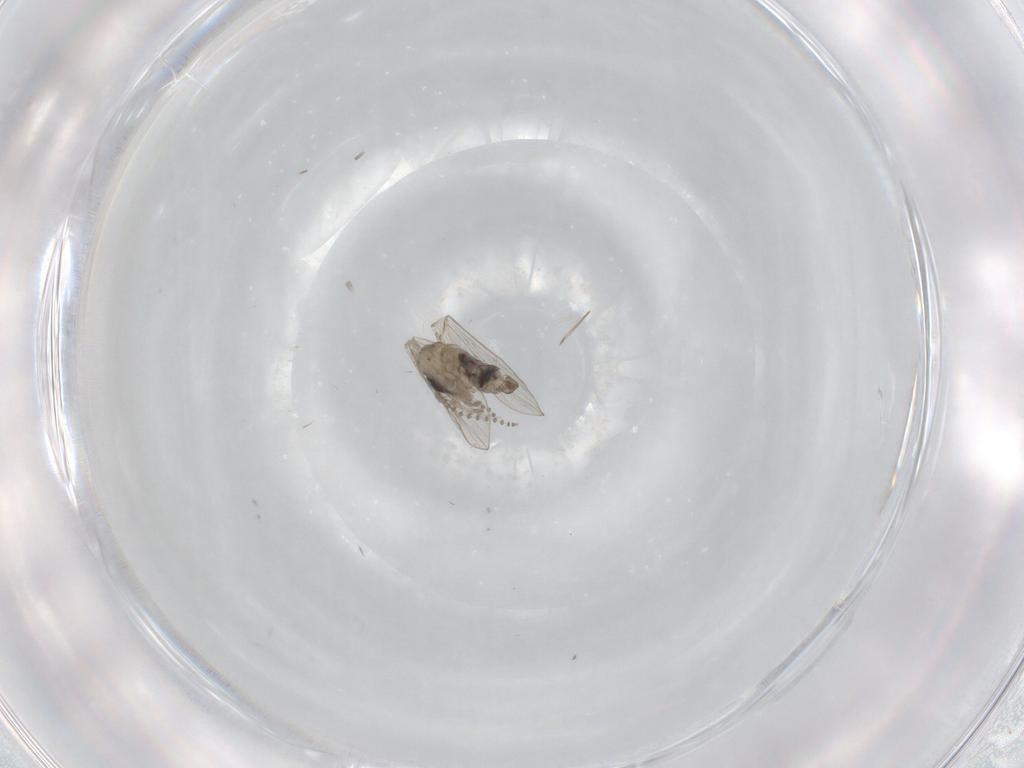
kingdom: Animalia
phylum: Arthropoda
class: Insecta
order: Diptera
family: Psychodidae
